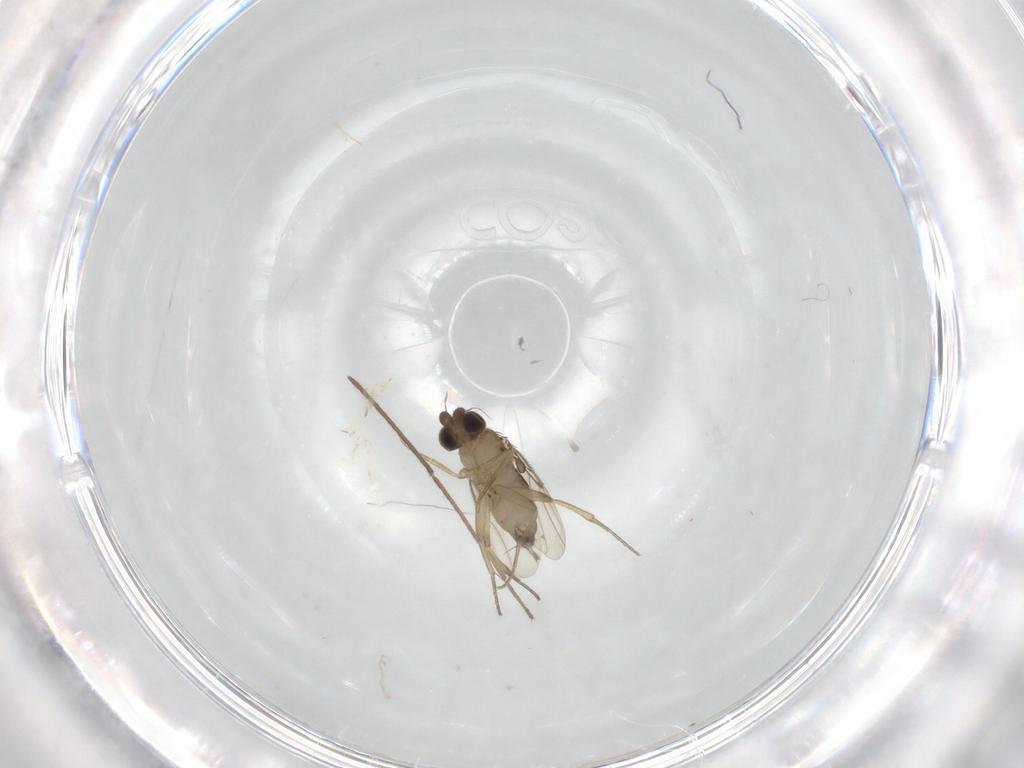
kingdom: Animalia
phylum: Arthropoda
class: Insecta
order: Diptera
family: Phoridae
